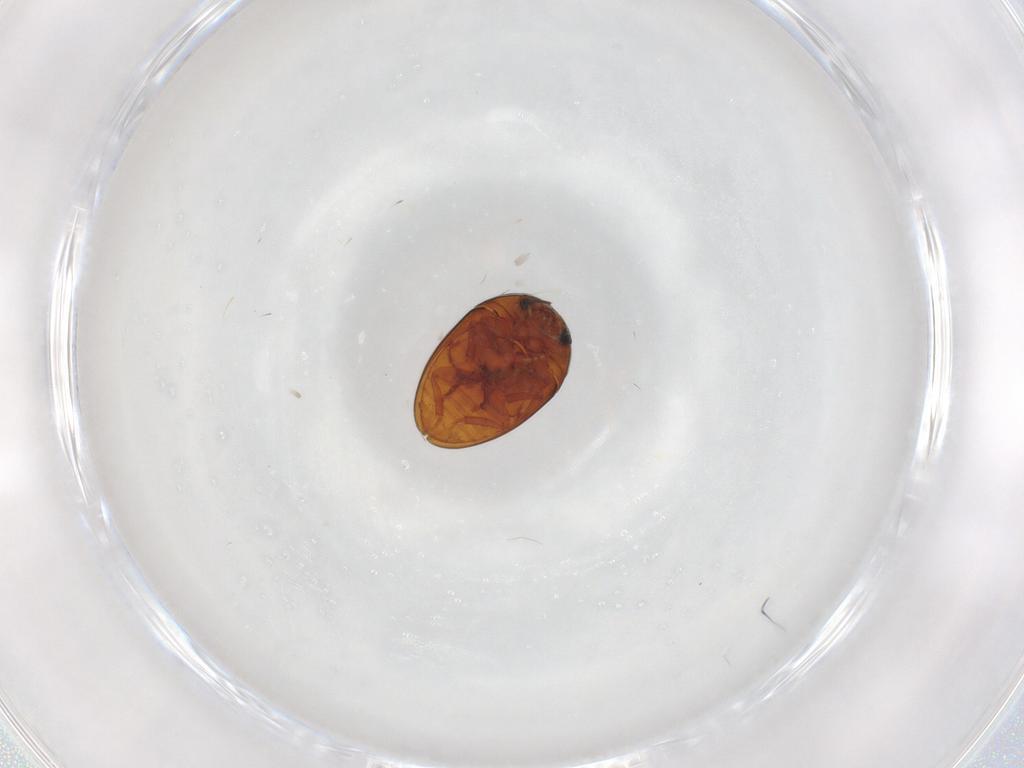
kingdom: Animalia
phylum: Arthropoda
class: Insecta
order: Coleoptera
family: Phalacridae
